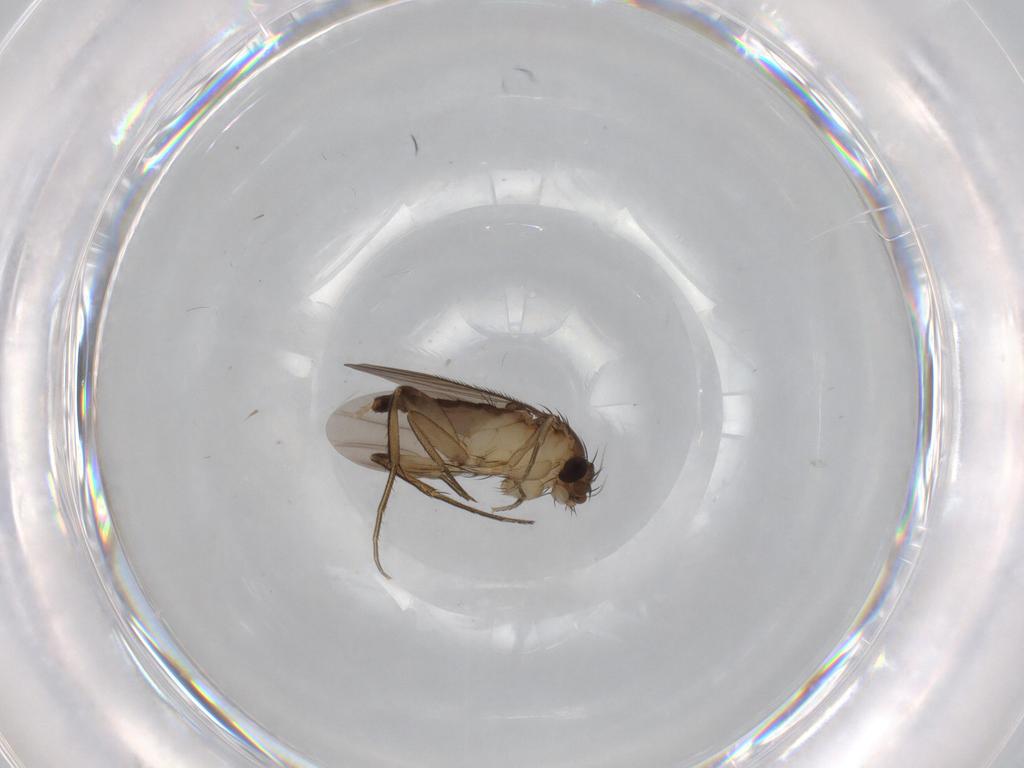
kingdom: Animalia
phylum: Arthropoda
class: Insecta
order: Diptera
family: Phoridae
